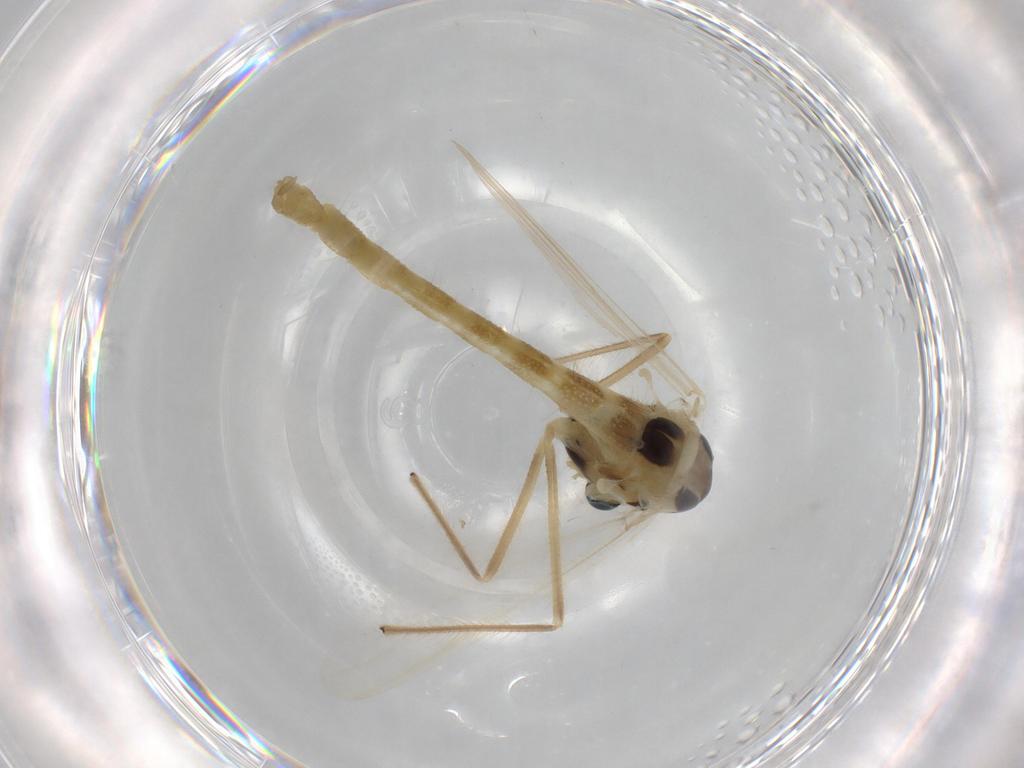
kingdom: Animalia
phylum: Arthropoda
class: Insecta
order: Diptera
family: Chironomidae
